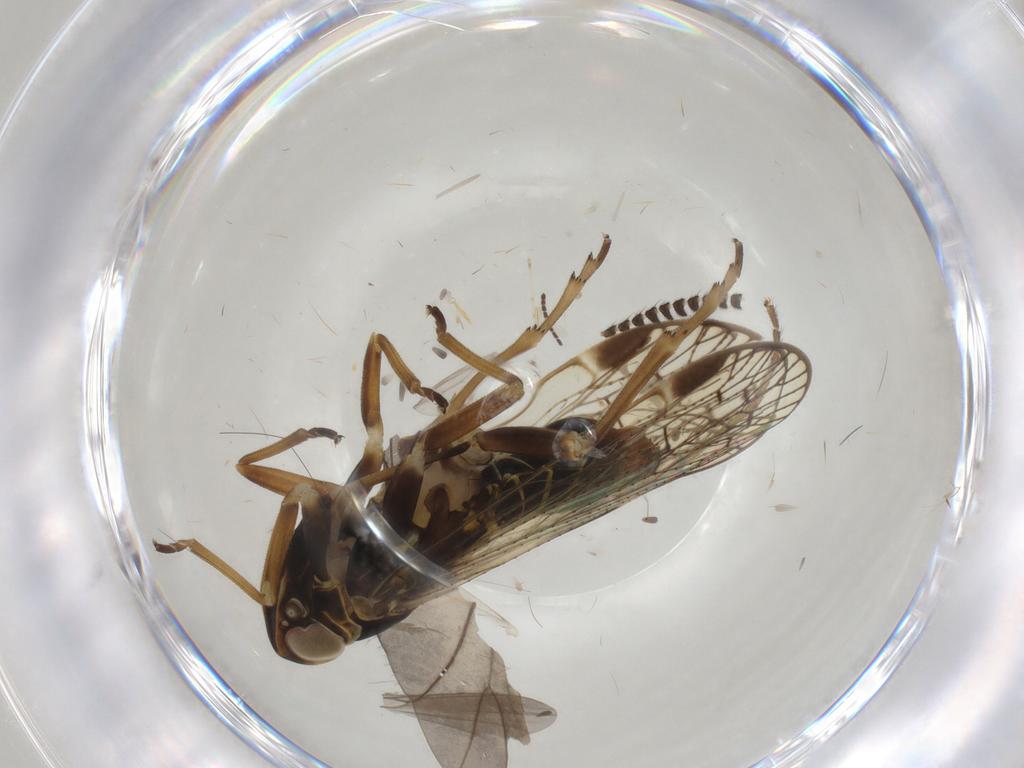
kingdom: Animalia
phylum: Arthropoda
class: Insecta
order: Hemiptera
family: Cixiidae
